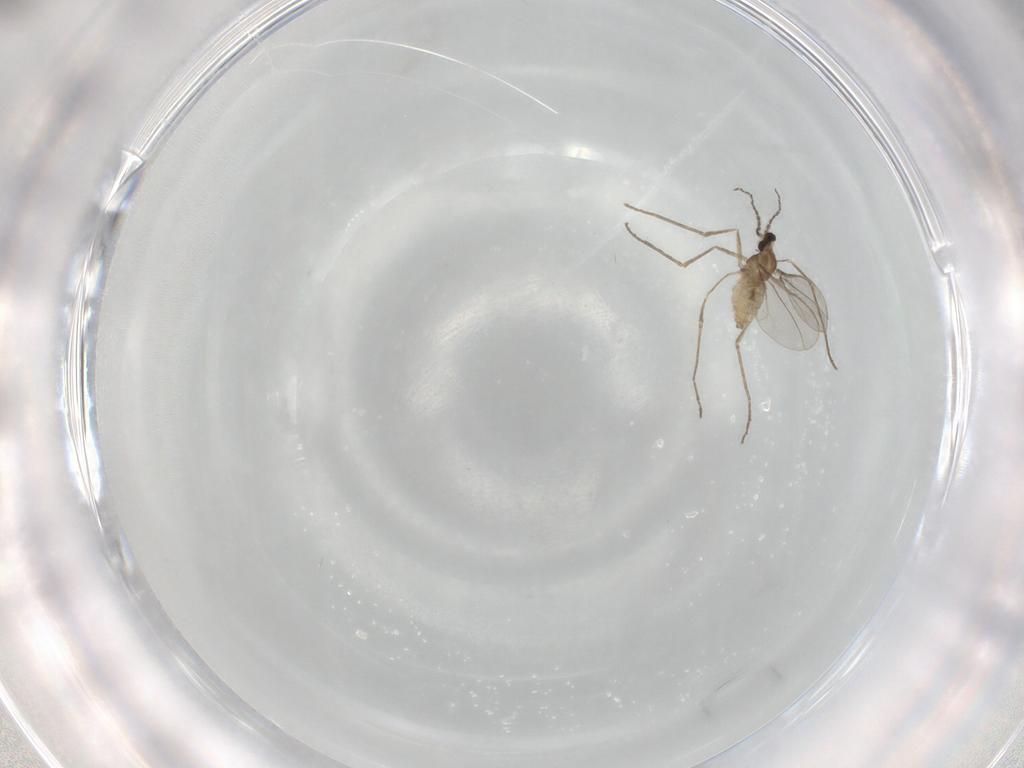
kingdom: Animalia
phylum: Arthropoda
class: Insecta
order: Diptera
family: Cecidomyiidae
